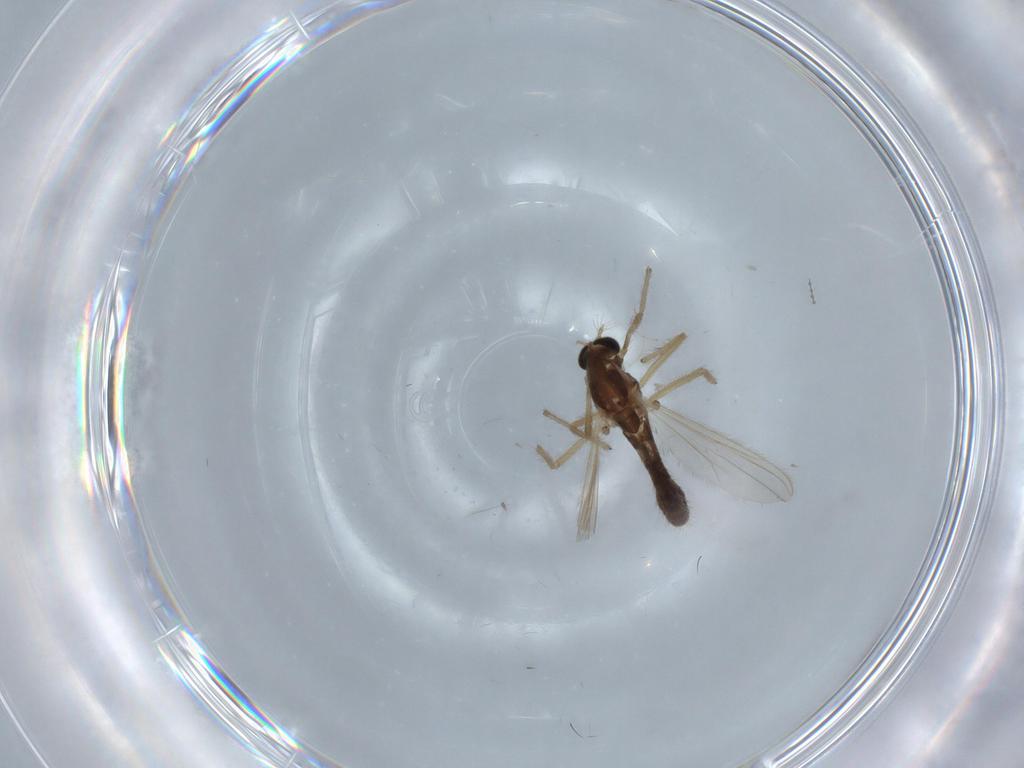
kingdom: Animalia
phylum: Arthropoda
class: Insecta
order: Diptera
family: Chironomidae
